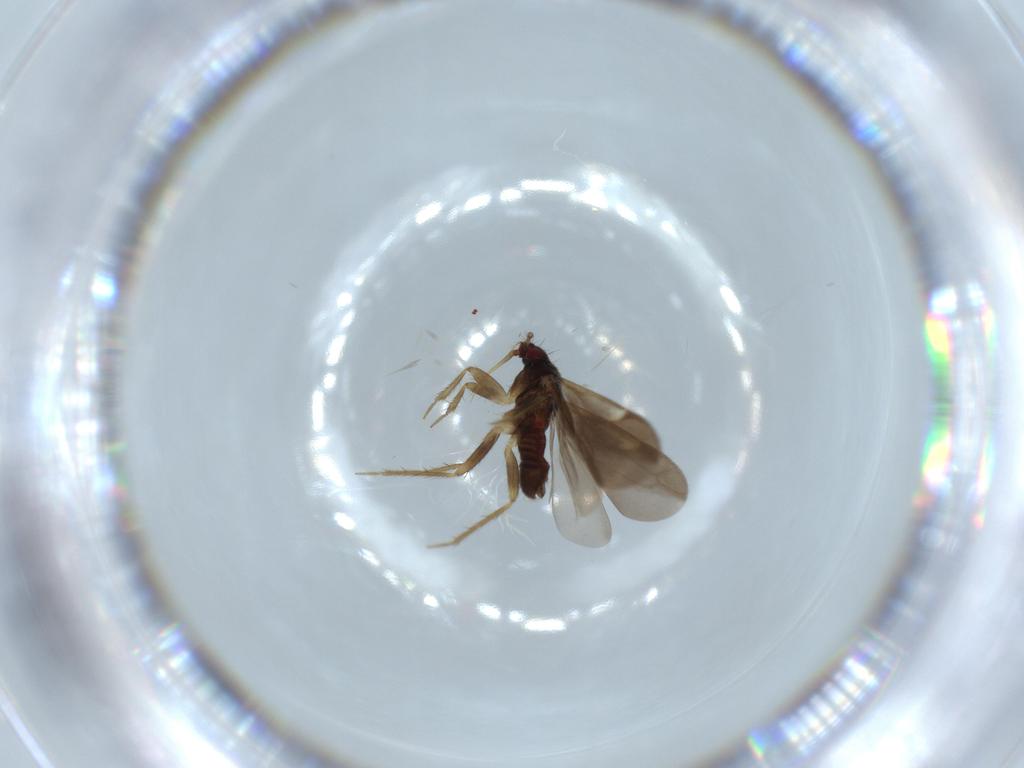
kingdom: Animalia
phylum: Arthropoda
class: Insecta
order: Hemiptera
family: Ceratocombidae
